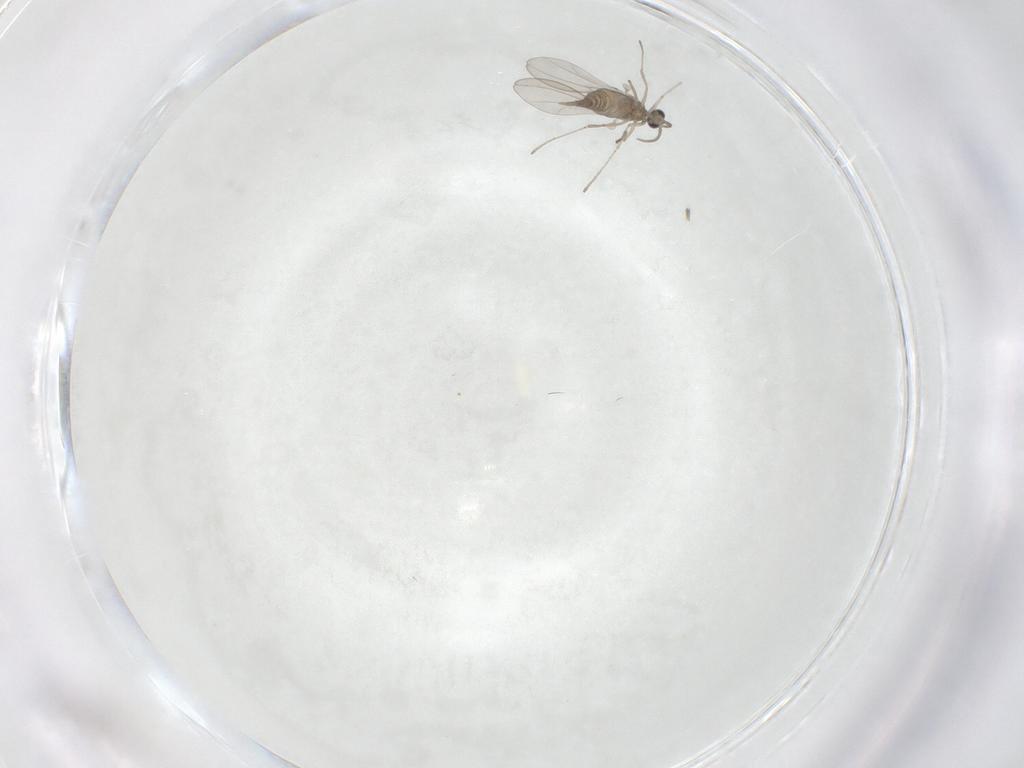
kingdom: Animalia
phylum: Arthropoda
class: Insecta
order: Diptera
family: Cecidomyiidae
